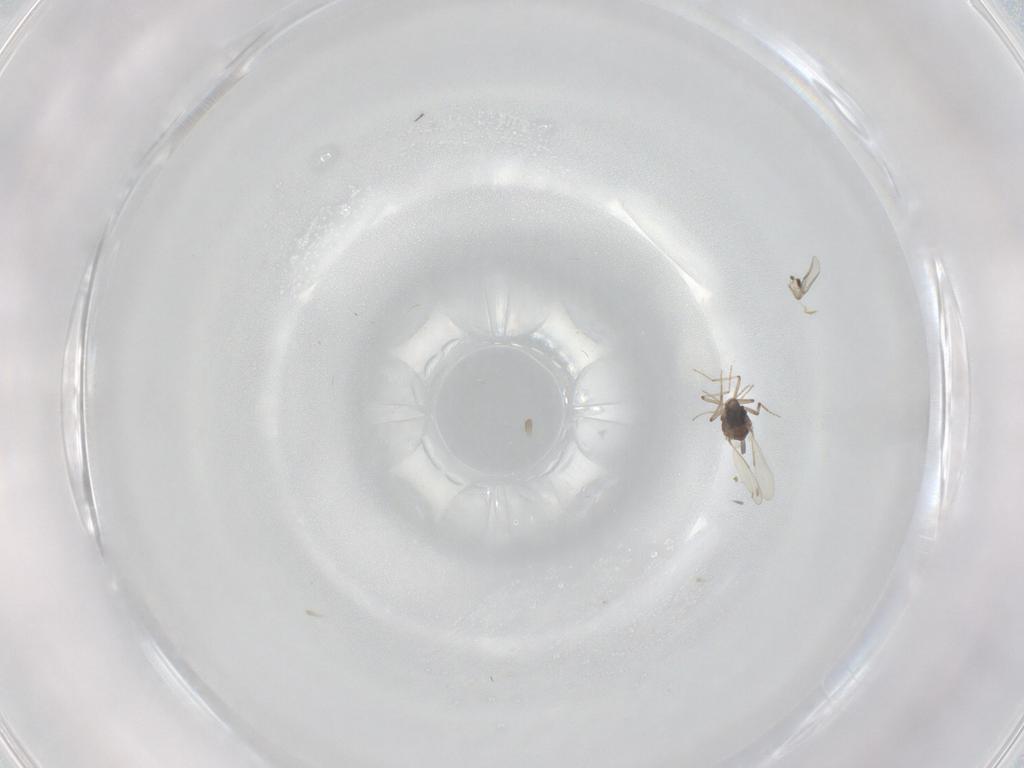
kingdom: Animalia
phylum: Arthropoda
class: Insecta
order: Diptera
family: Ceratopogonidae
